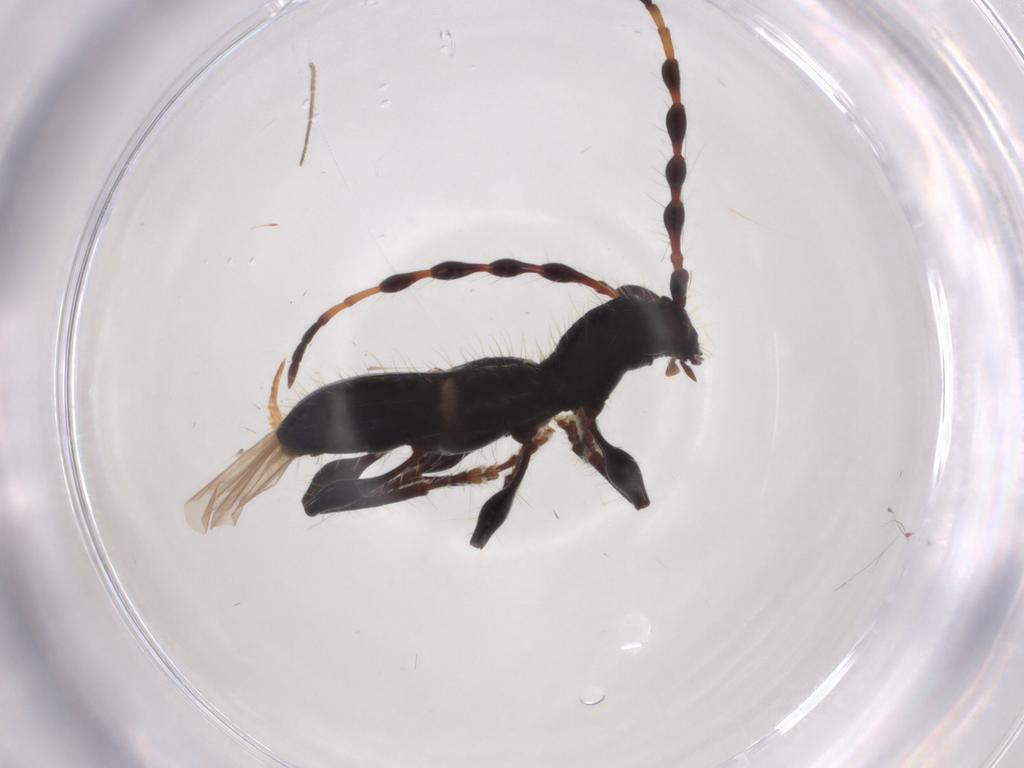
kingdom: Animalia
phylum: Arthropoda
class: Insecta
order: Coleoptera
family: Cerambycidae
